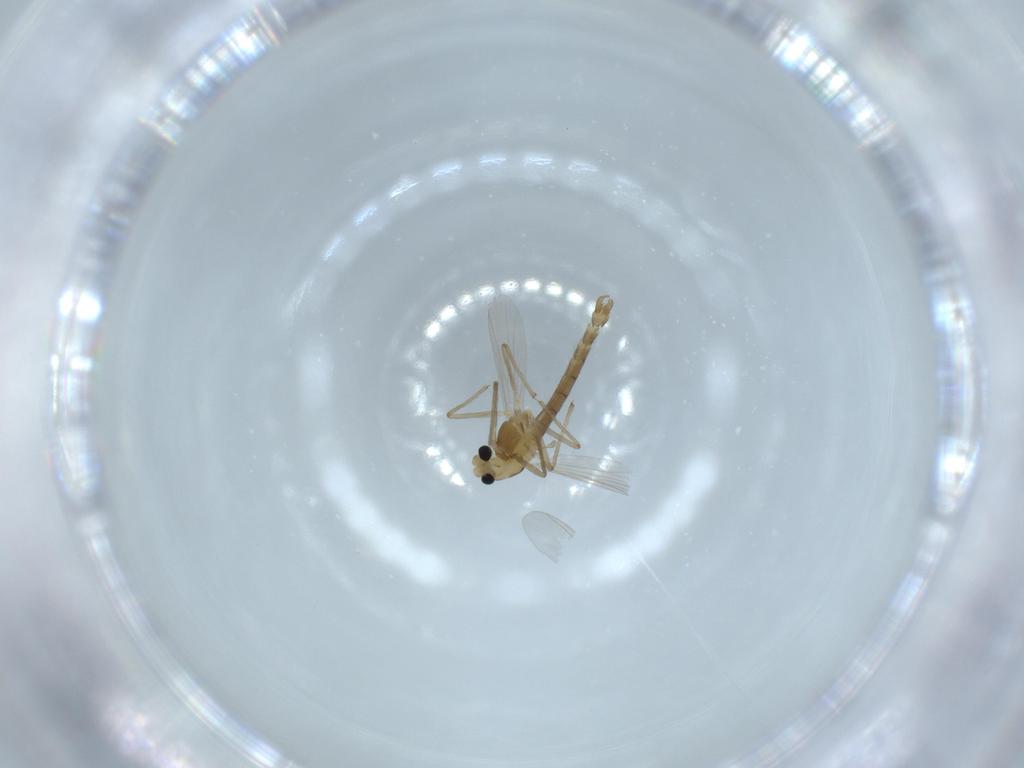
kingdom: Animalia
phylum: Arthropoda
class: Insecta
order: Diptera
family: Chironomidae
